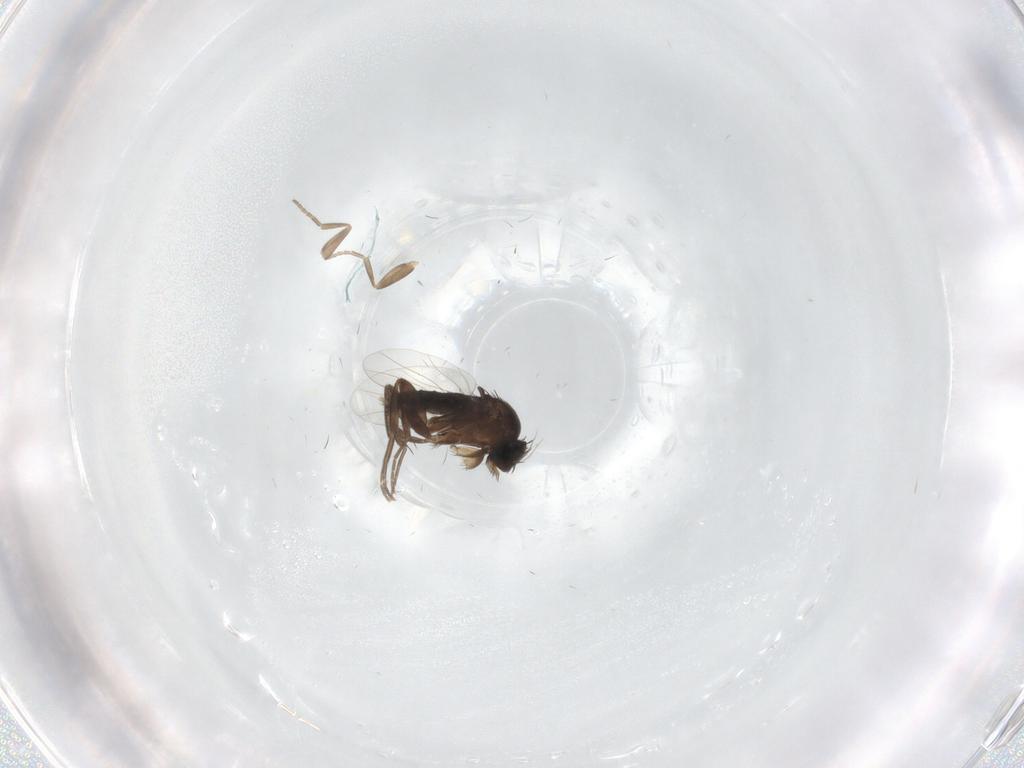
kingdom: Animalia
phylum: Arthropoda
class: Insecta
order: Diptera
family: Phoridae
